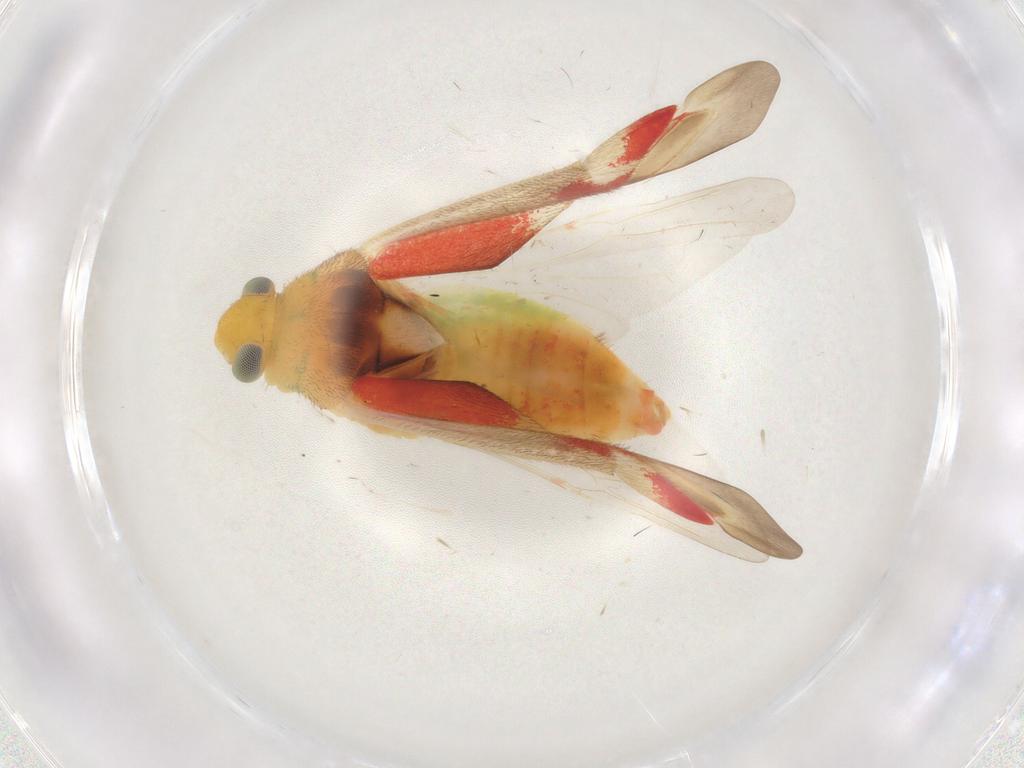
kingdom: Animalia
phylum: Arthropoda
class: Insecta
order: Hemiptera
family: Miridae
